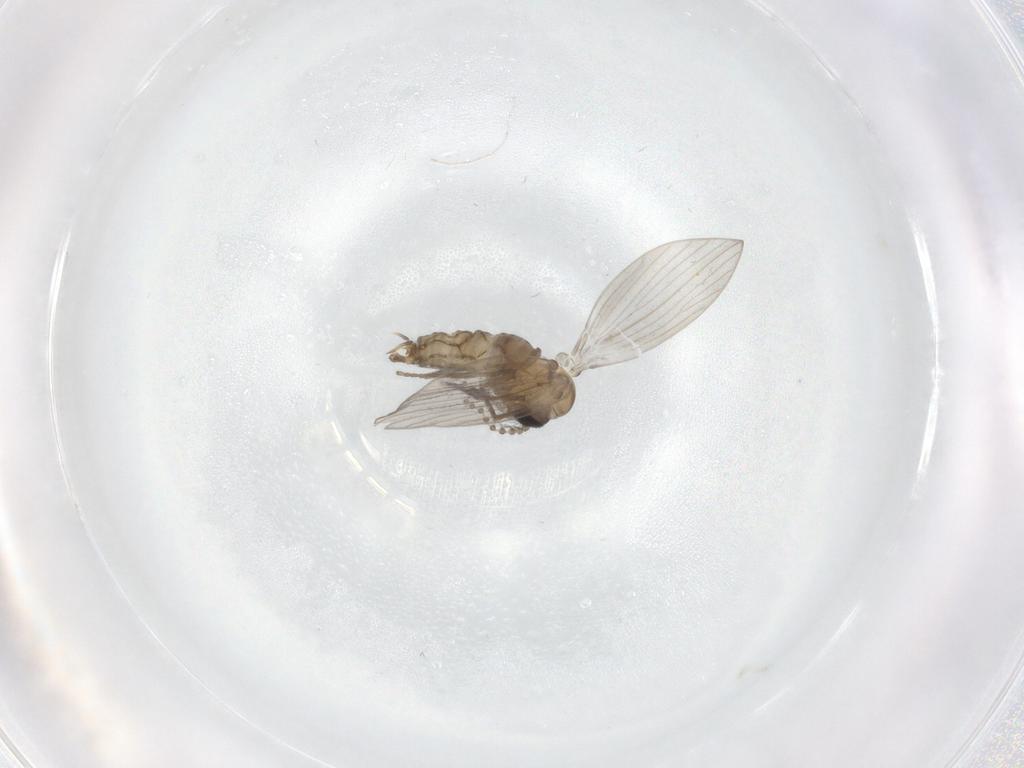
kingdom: Animalia
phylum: Arthropoda
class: Insecta
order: Diptera
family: Psychodidae
